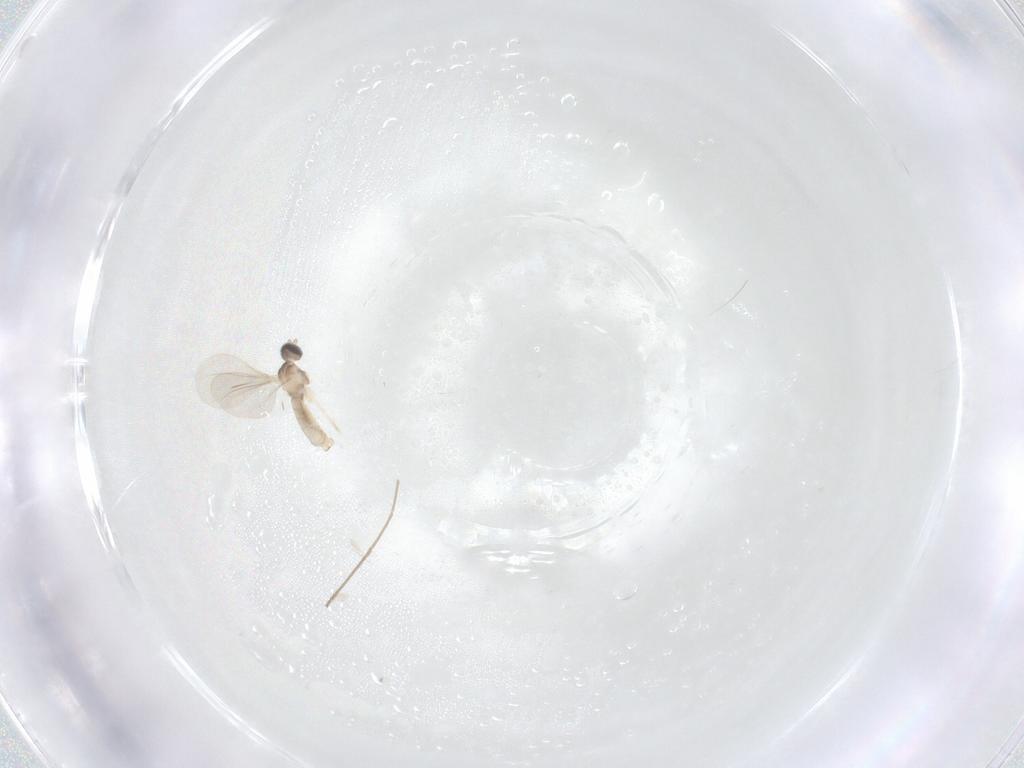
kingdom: Animalia
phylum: Arthropoda
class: Insecta
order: Diptera
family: Cecidomyiidae
